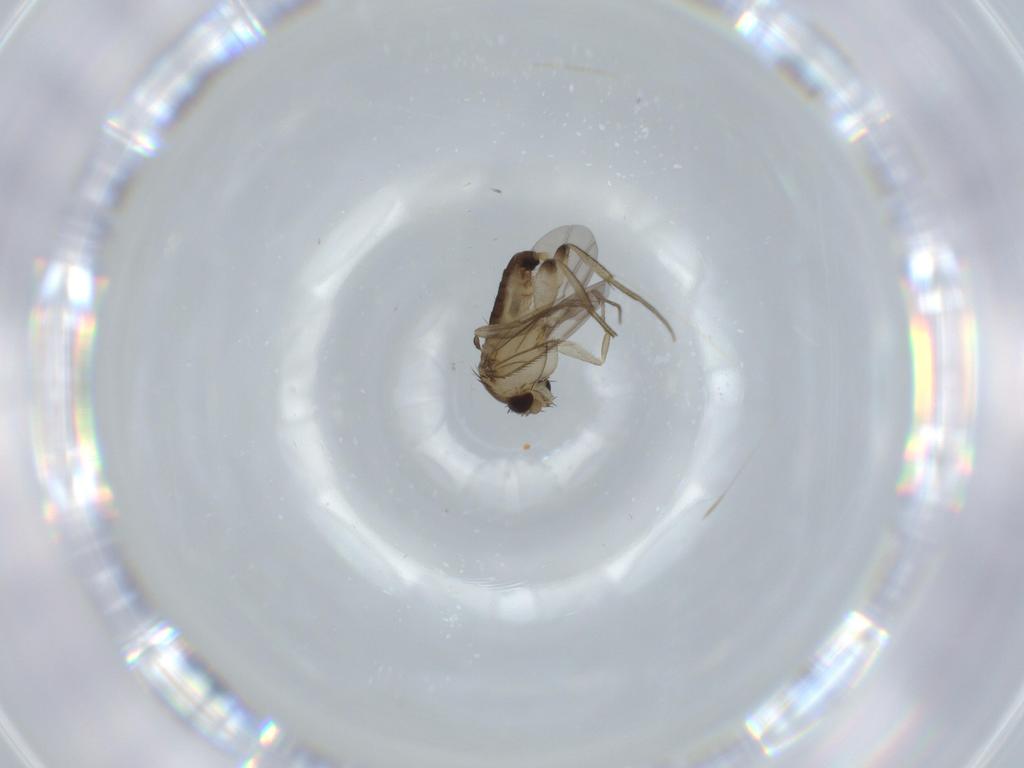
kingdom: Animalia
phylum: Arthropoda
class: Insecta
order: Diptera
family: Phoridae
